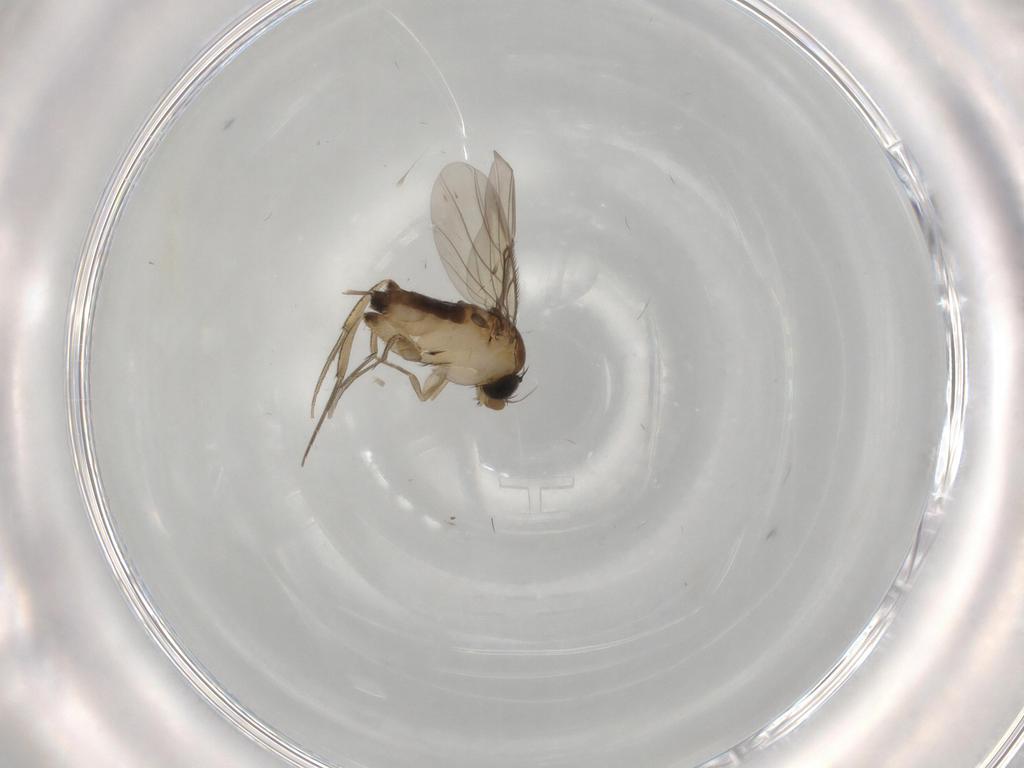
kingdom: Animalia
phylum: Arthropoda
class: Insecta
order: Diptera
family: Phoridae
